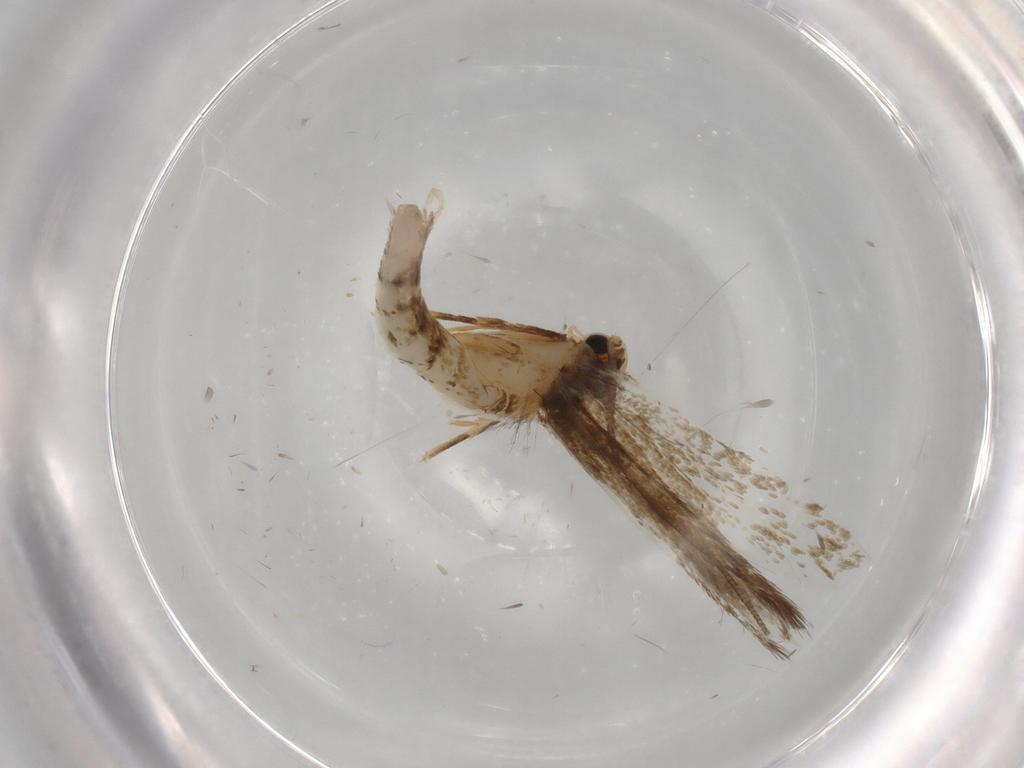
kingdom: Animalia
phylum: Arthropoda
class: Insecta
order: Lepidoptera
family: Tineidae
